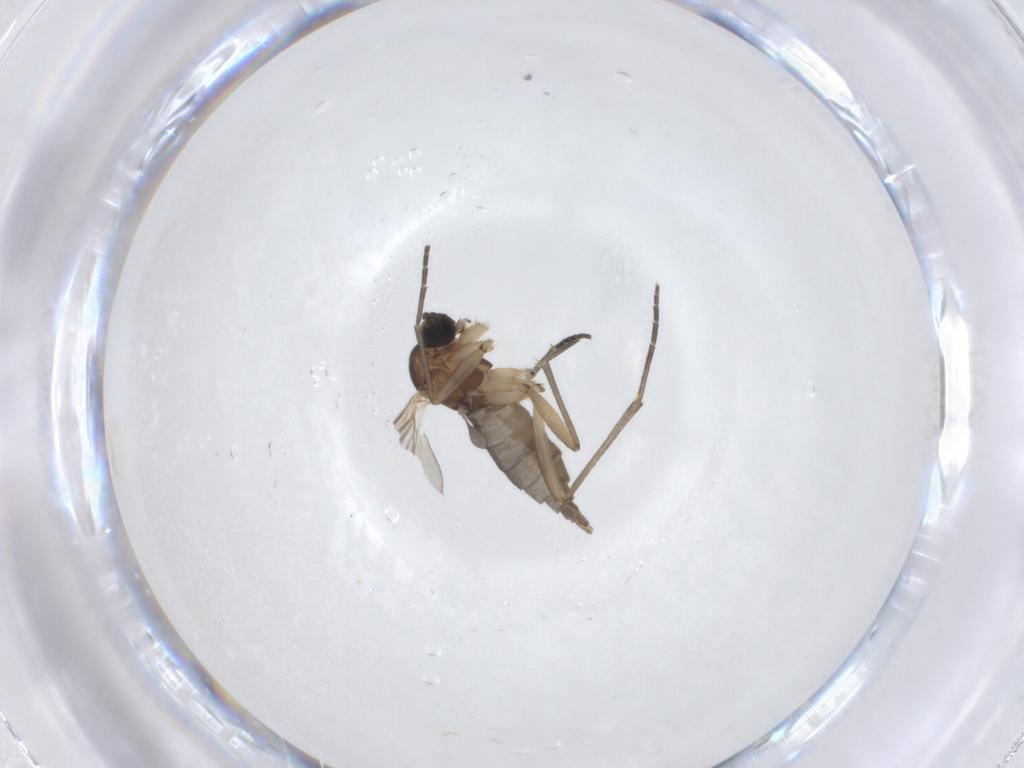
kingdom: Animalia
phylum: Arthropoda
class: Insecta
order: Diptera
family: Sciaridae
